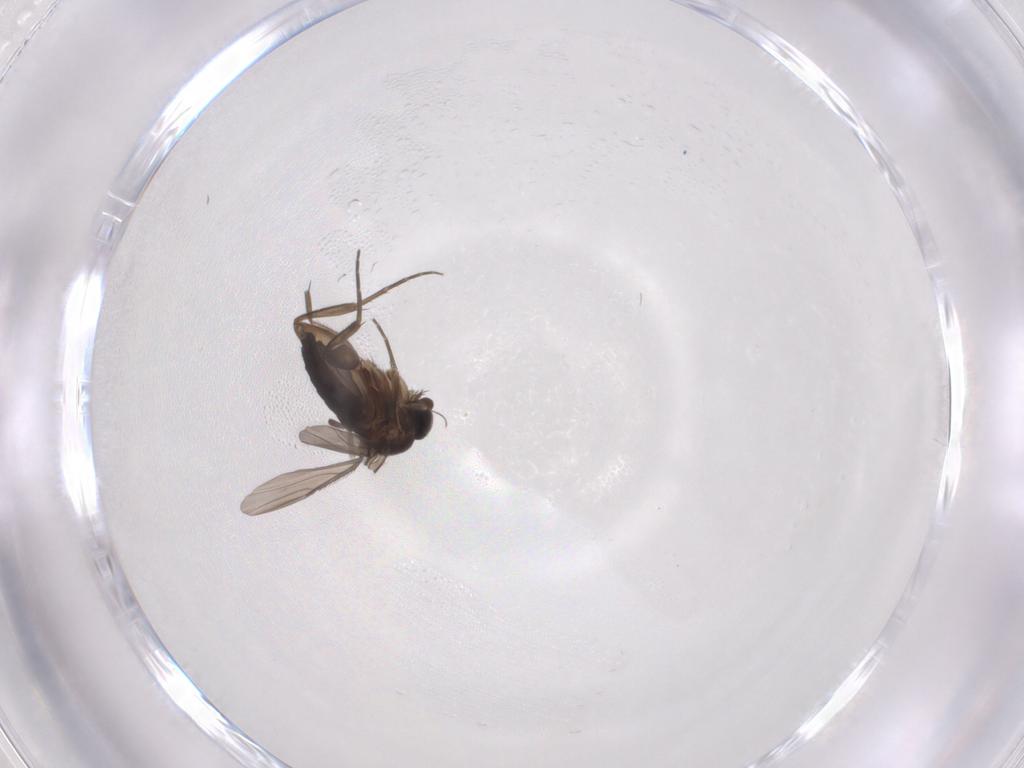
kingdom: Animalia
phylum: Arthropoda
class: Insecta
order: Diptera
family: Phoridae
